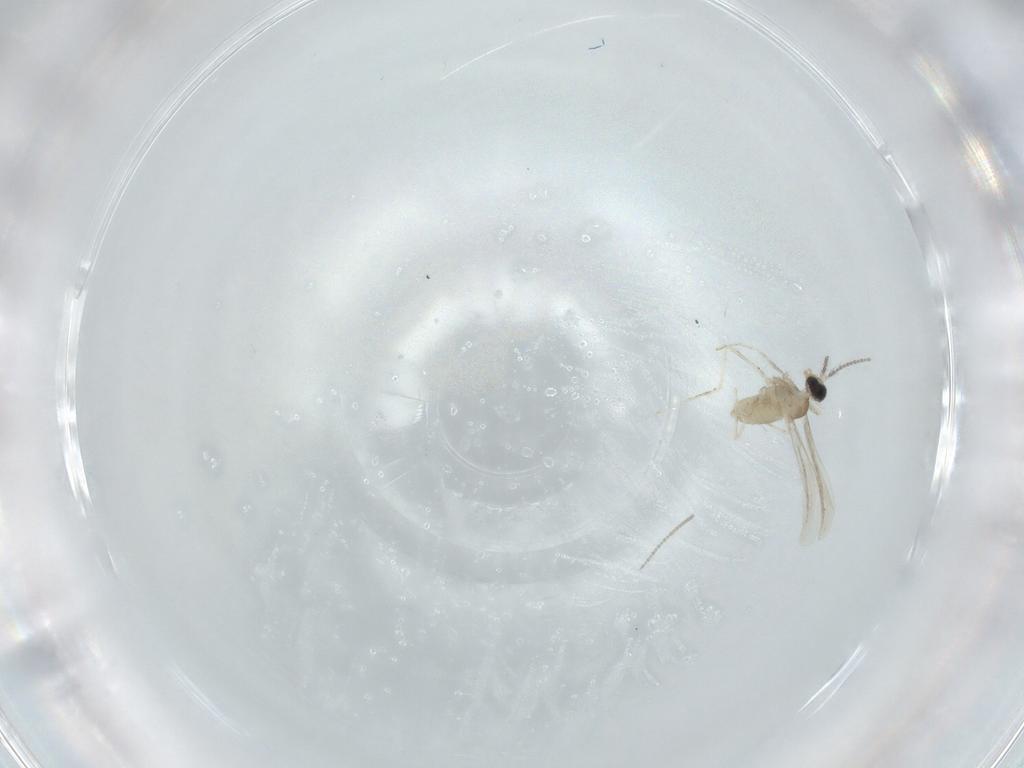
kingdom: Animalia
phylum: Arthropoda
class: Insecta
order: Diptera
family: Cecidomyiidae
